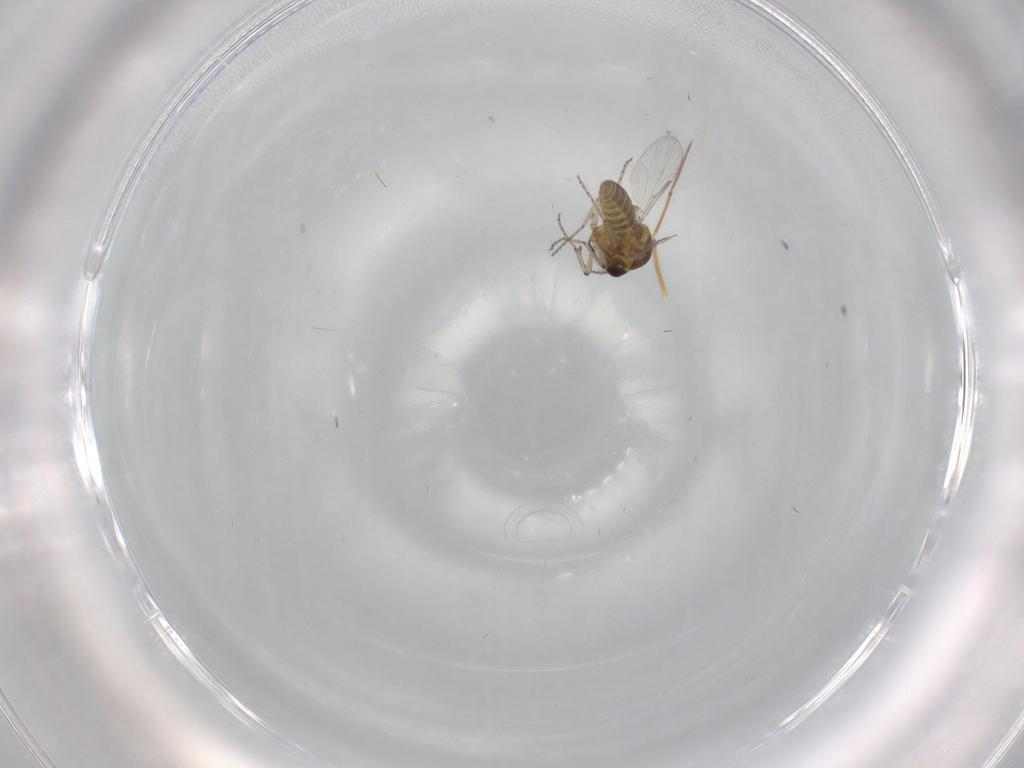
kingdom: Animalia
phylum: Arthropoda
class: Insecta
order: Diptera
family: Ceratopogonidae
